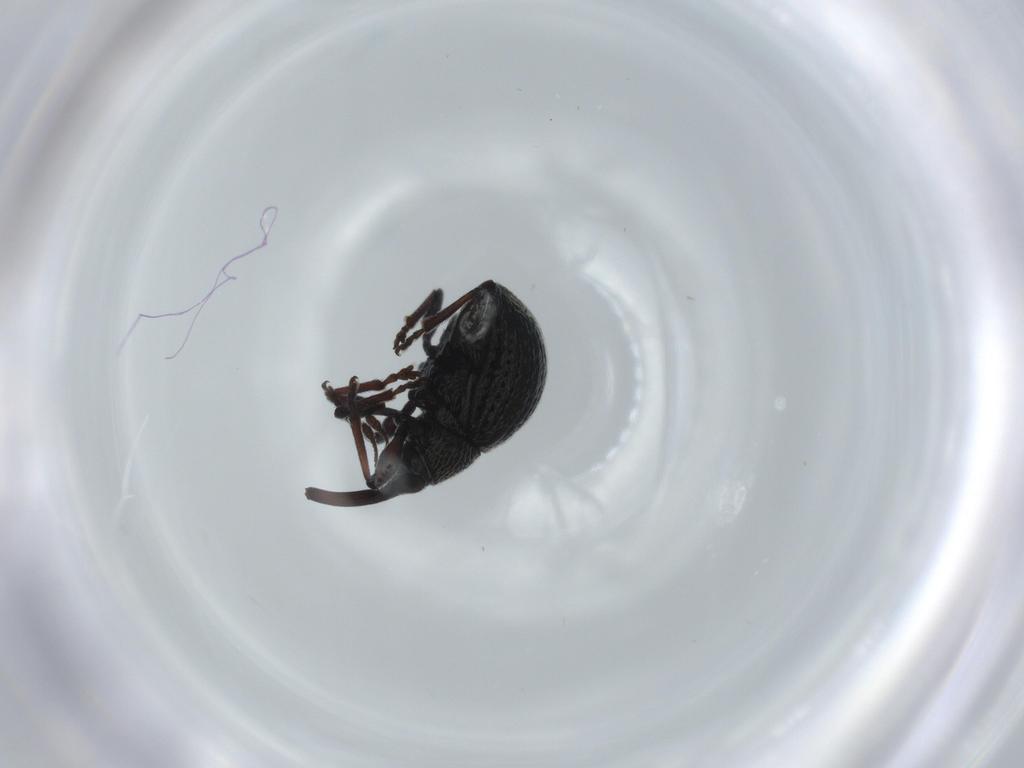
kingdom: Animalia
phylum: Arthropoda
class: Insecta
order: Coleoptera
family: Brentidae
